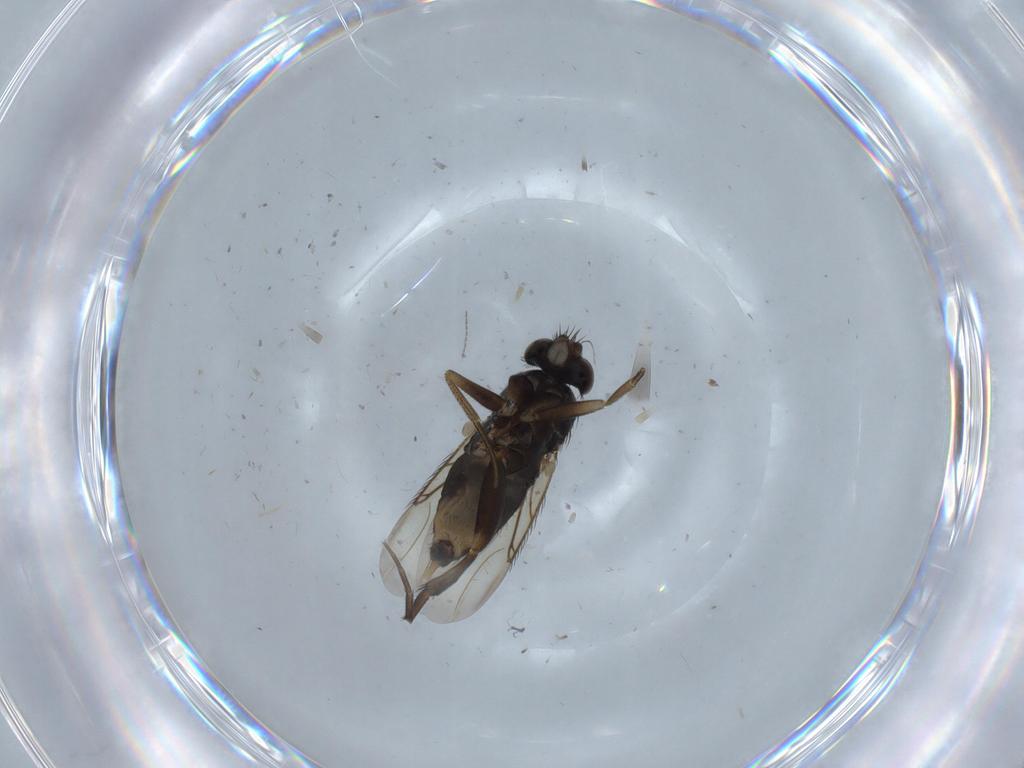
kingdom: Animalia
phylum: Arthropoda
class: Insecta
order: Diptera
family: Phoridae
